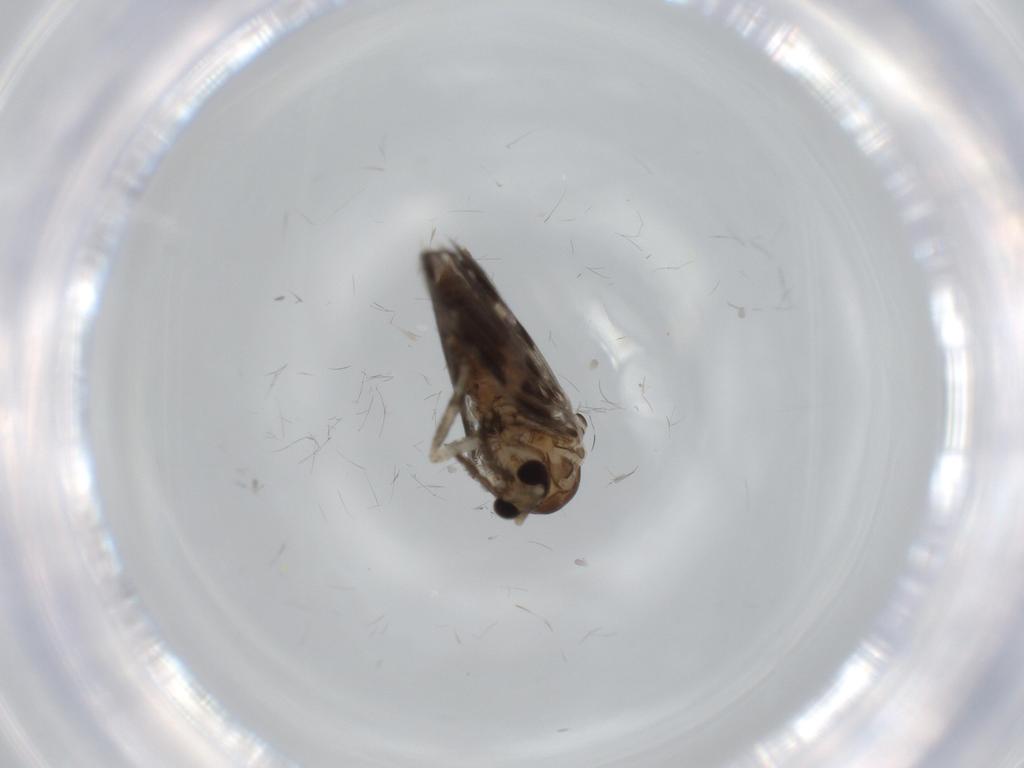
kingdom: Animalia
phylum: Arthropoda
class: Insecta
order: Diptera
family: Psychodidae
